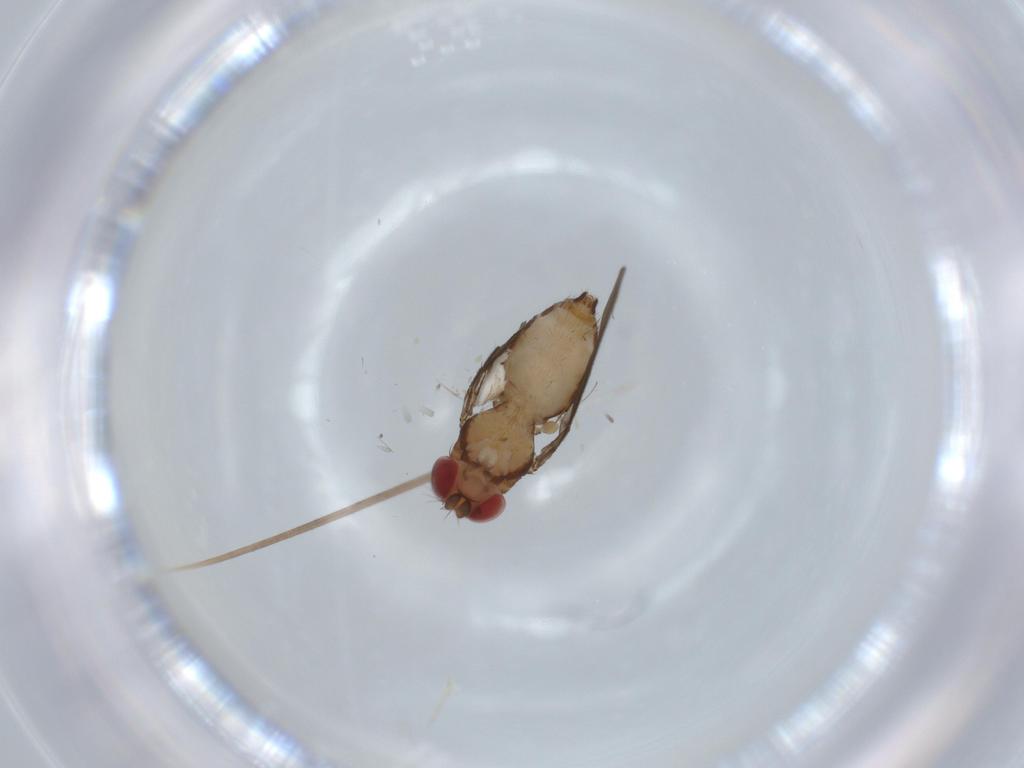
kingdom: Animalia
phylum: Arthropoda
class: Insecta
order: Diptera
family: Drosophilidae
